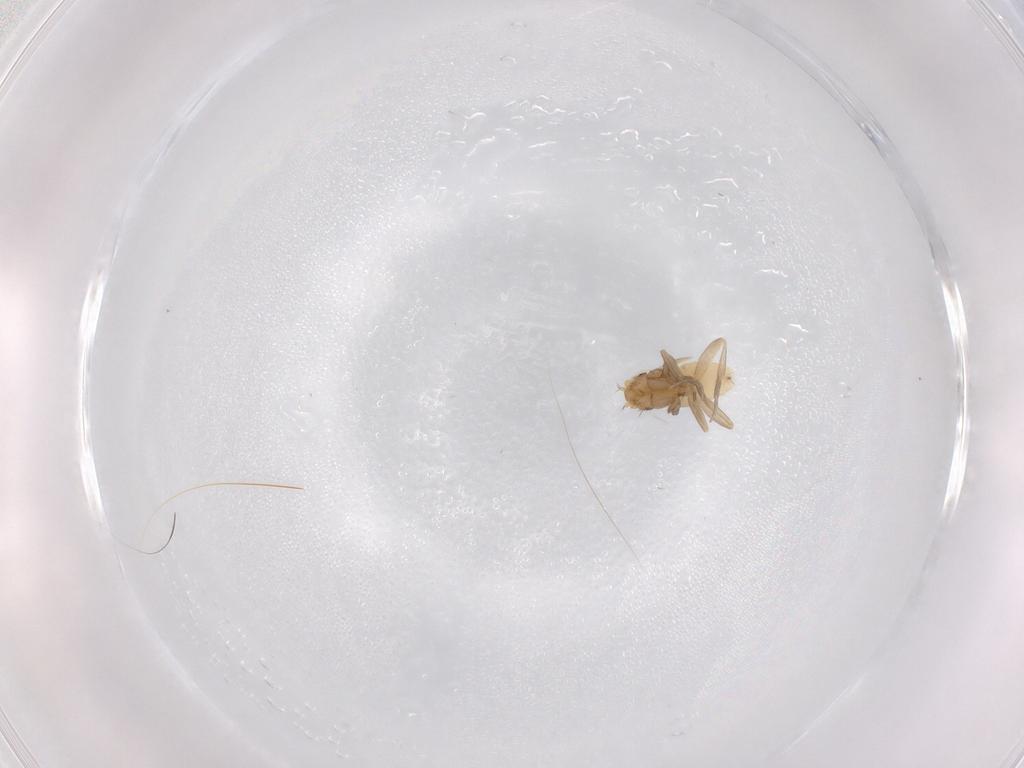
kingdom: Animalia
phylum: Arthropoda
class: Insecta
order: Diptera
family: Phoridae
